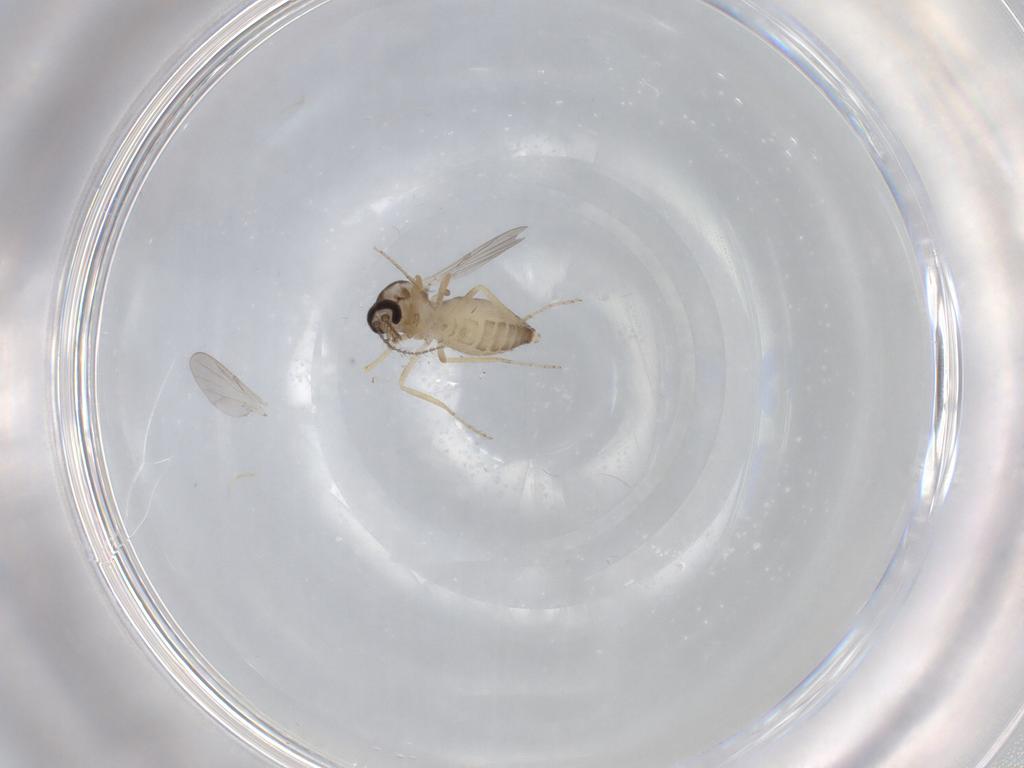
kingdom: Animalia
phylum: Arthropoda
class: Insecta
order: Diptera
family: Ceratopogonidae
